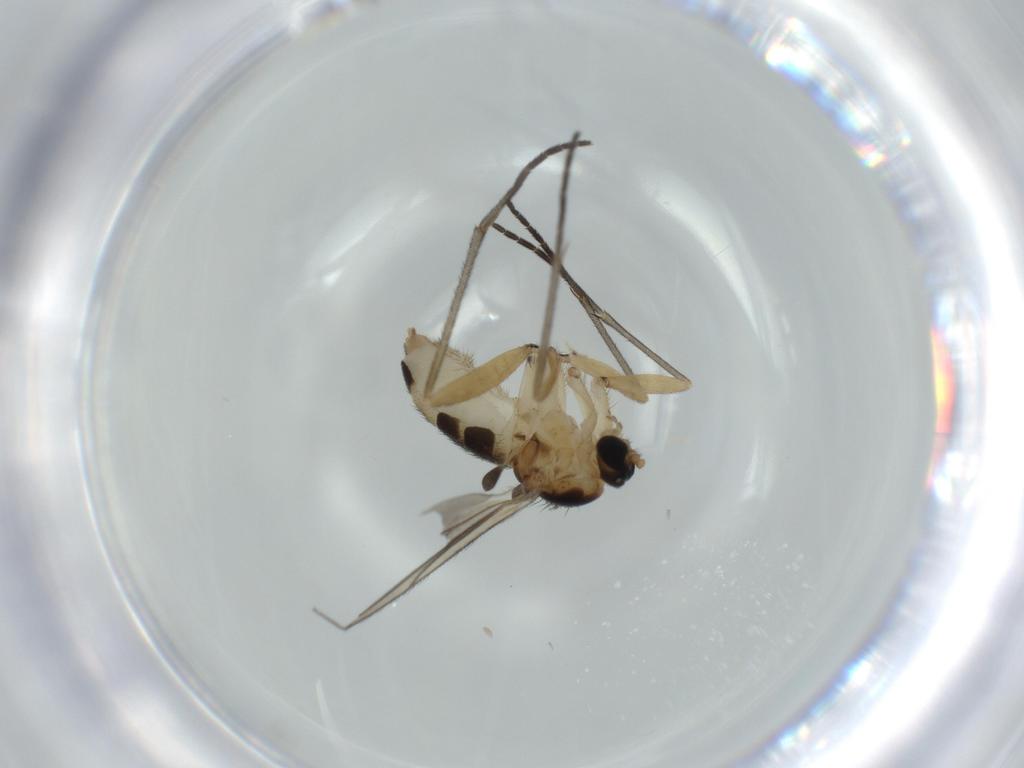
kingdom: Animalia
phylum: Arthropoda
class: Insecta
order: Diptera
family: Sciaridae
